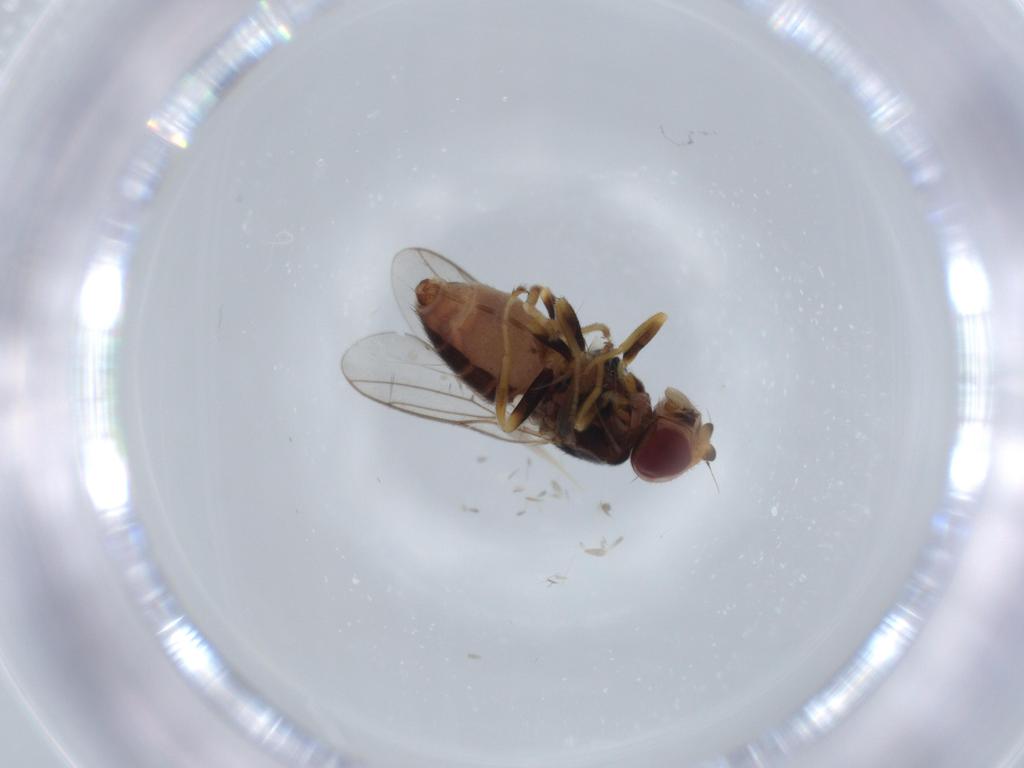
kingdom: Animalia
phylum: Arthropoda
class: Insecta
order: Diptera
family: Chloropidae
